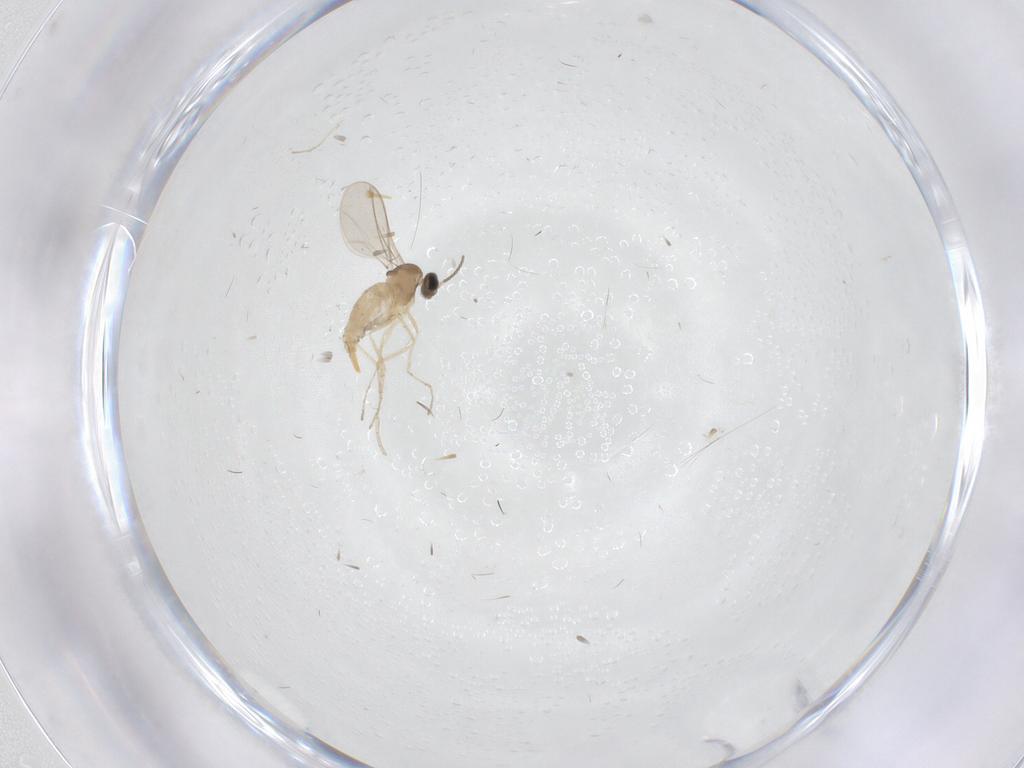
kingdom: Animalia
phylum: Arthropoda
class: Insecta
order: Diptera
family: Cecidomyiidae
